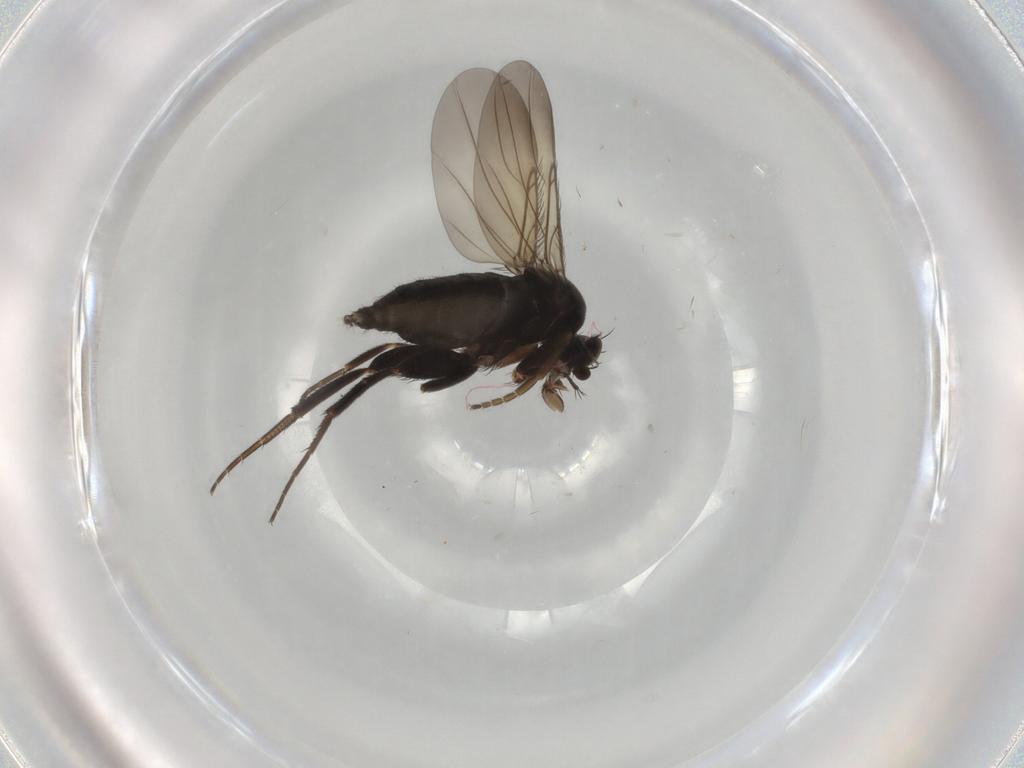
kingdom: Animalia
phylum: Arthropoda
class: Insecta
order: Diptera
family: Phoridae
